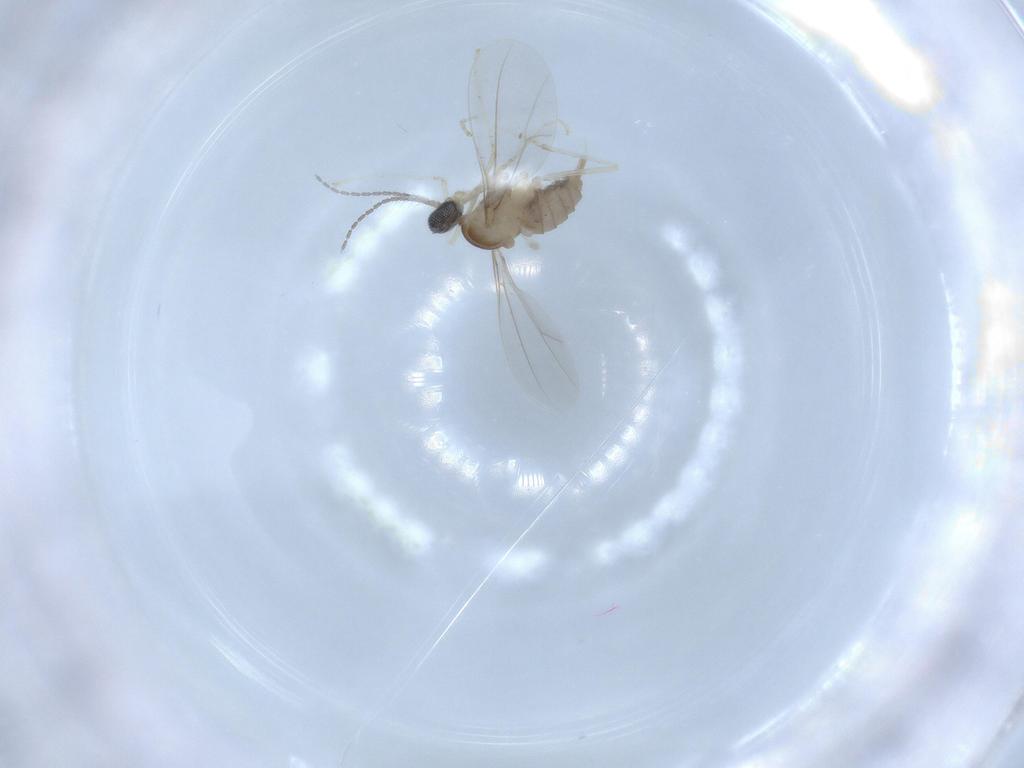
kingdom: Animalia
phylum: Arthropoda
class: Insecta
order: Diptera
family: Cecidomyiidae
